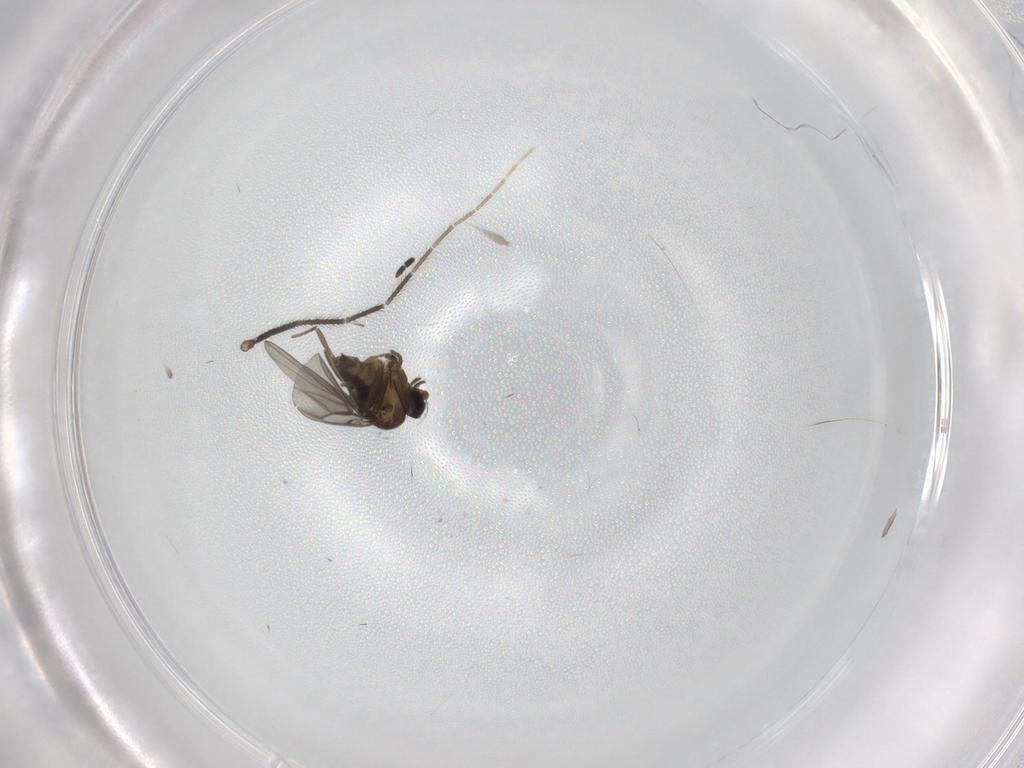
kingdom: Animalia
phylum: Arthropoda
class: Insecta
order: Diptera
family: Phoridae
